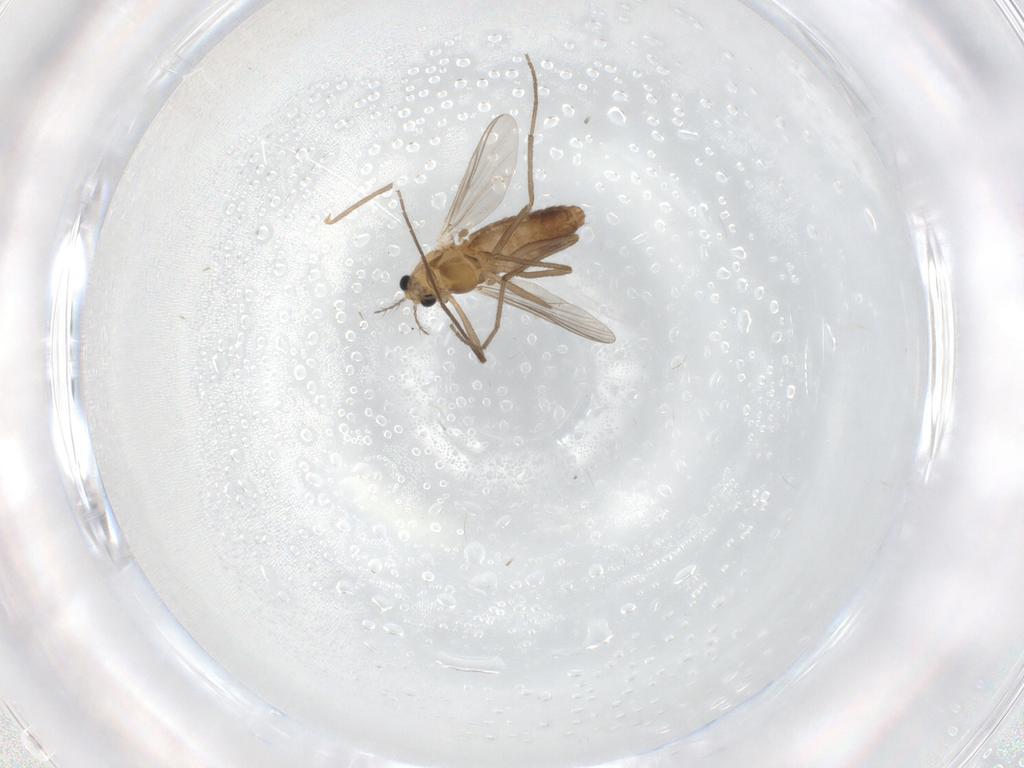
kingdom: Animalia
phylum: Arthropoda
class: Insecta
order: Diptera
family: Chironomidae
